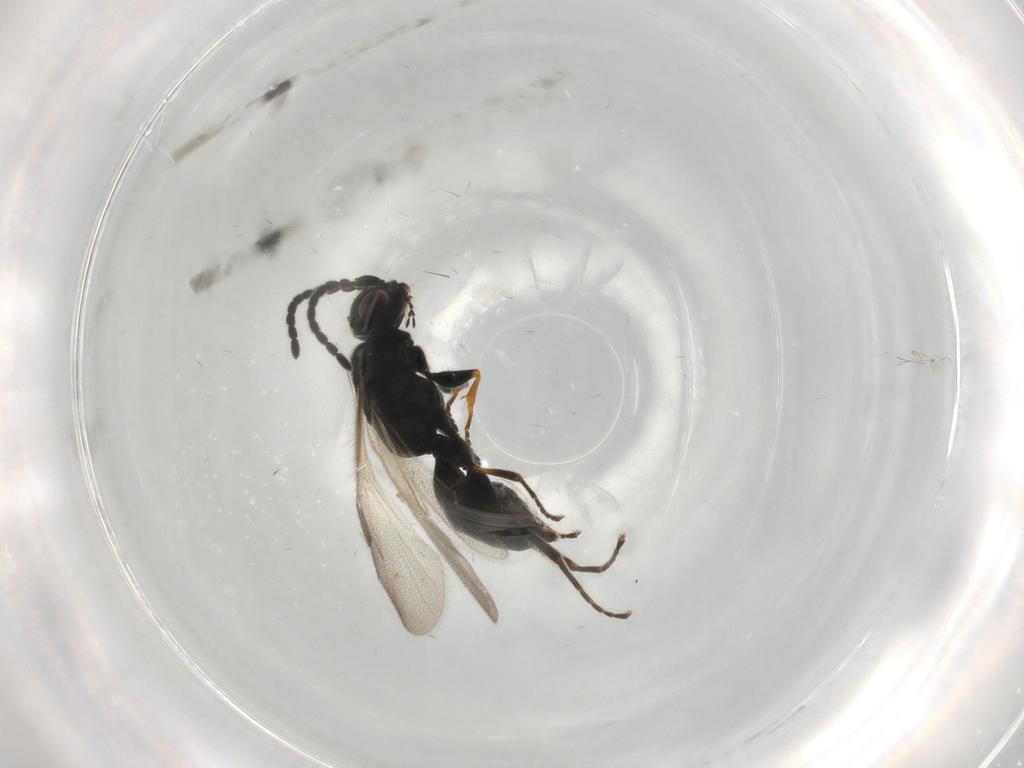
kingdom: Animalia
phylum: Arthropoda
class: Insecta
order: Hymenoptera
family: Dryinidae
